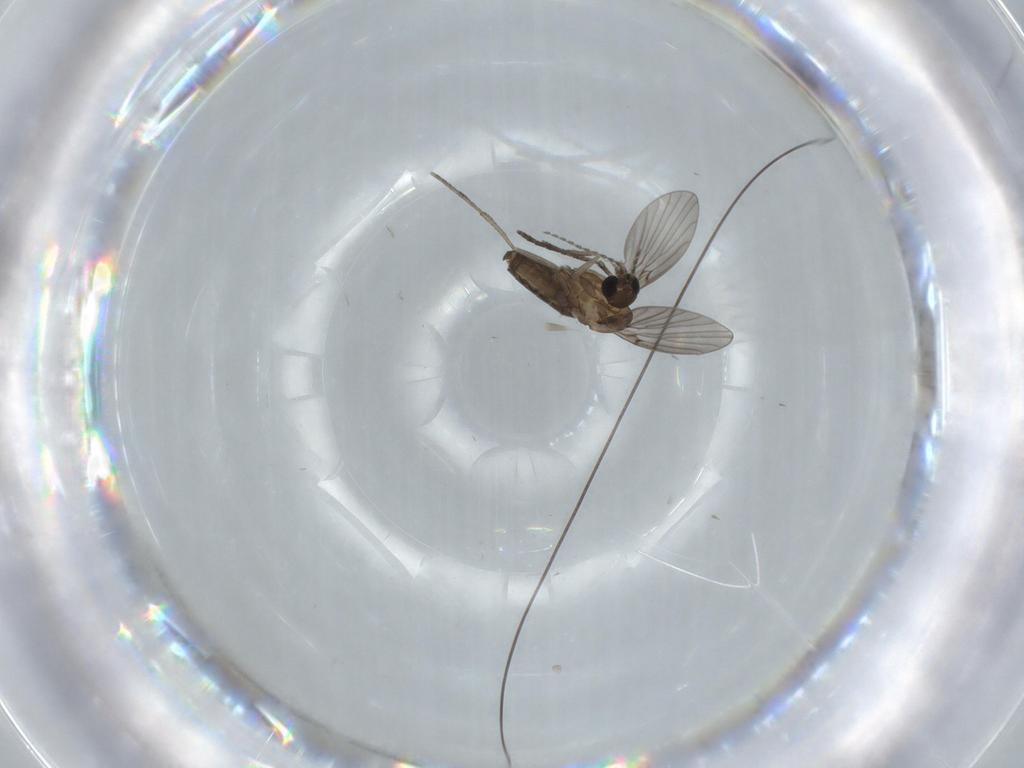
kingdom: Animalia
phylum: Arthropoda
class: Insecta
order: Diptera
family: Psychodidae
